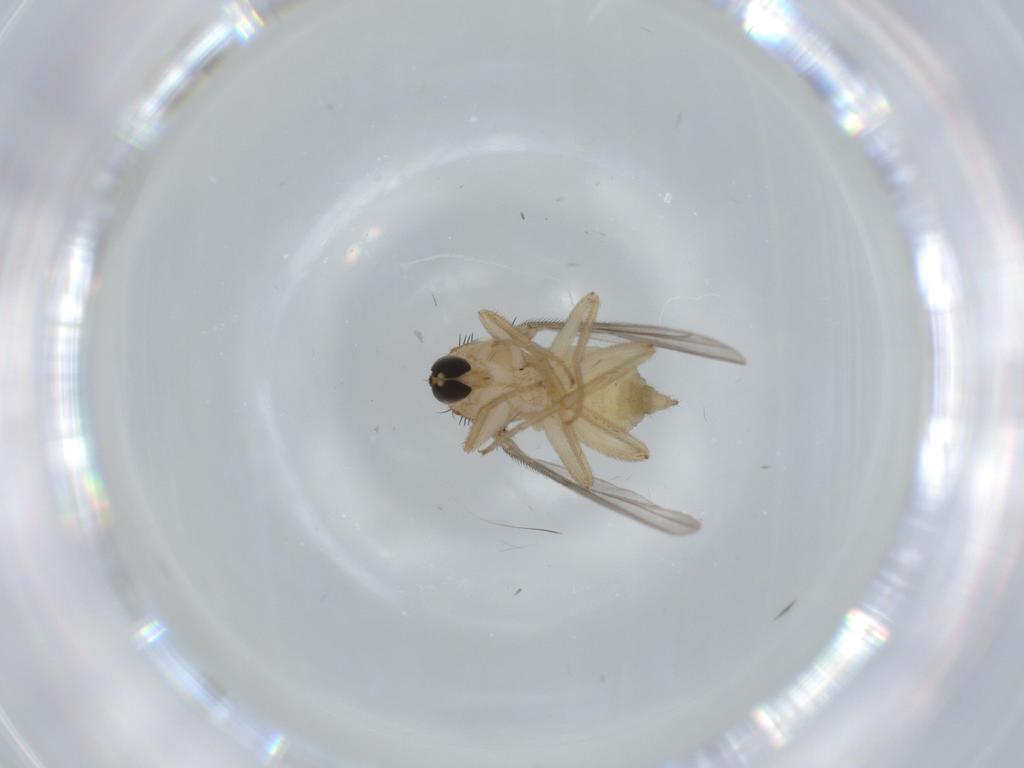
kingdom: Animalia
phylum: Arthropoda
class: Insecta
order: Diptera
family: Hybotidae
